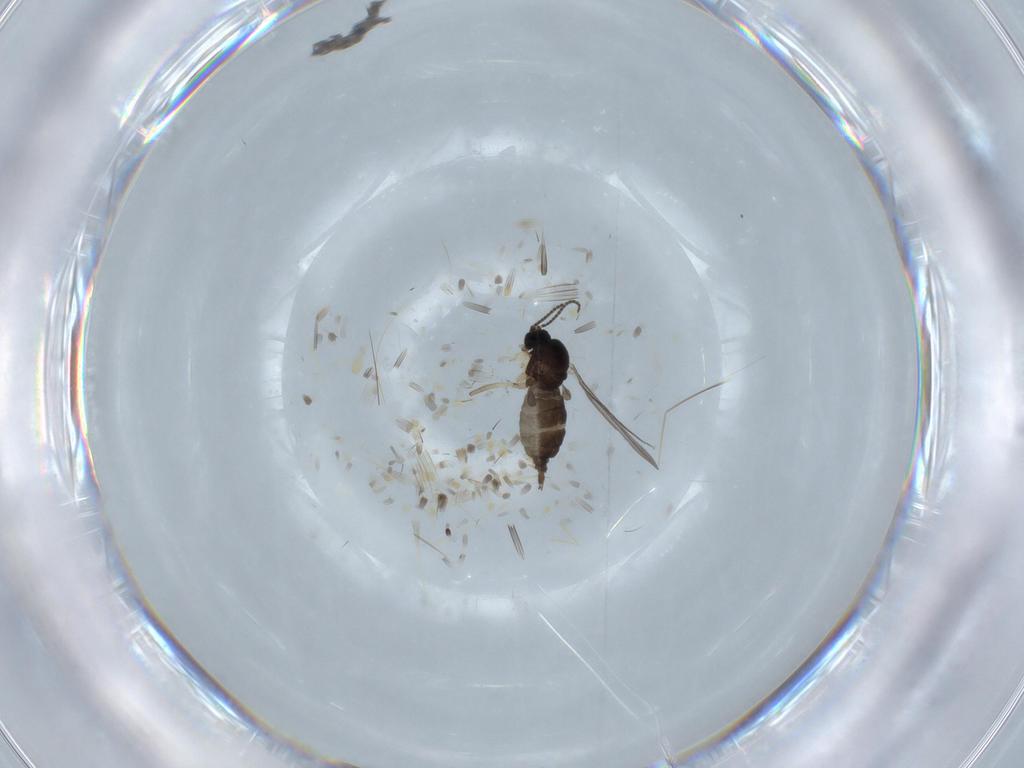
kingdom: Animalia
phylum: Arthropoda
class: Insecta
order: Diptera
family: Sciaridae
